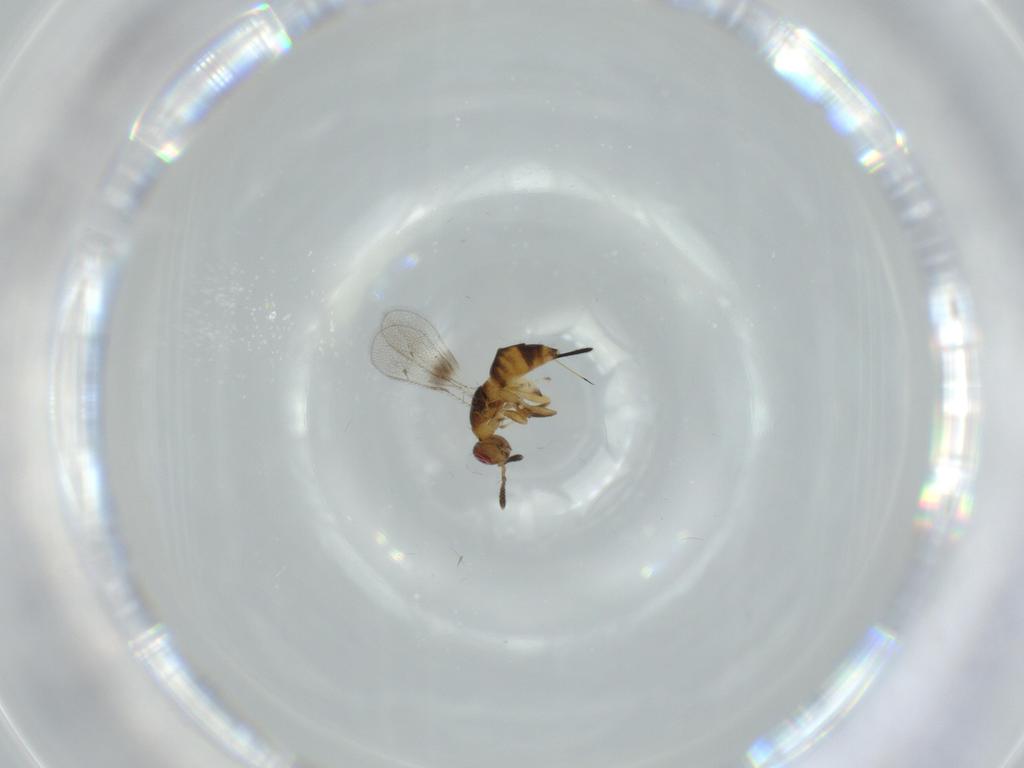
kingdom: Animalia
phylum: Arthropoda
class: Insecta
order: Hymenoptera
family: Torymidae
